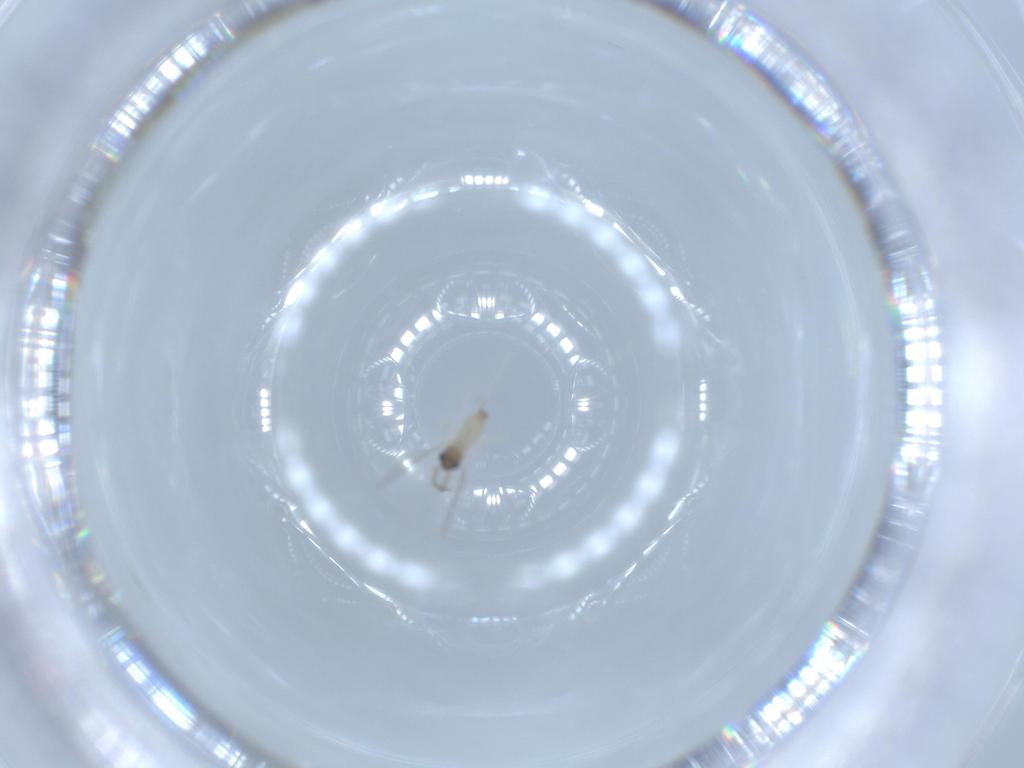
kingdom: Animalia
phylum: Arthropoda
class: Insecta
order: Diptera
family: Cecidomyiidae
